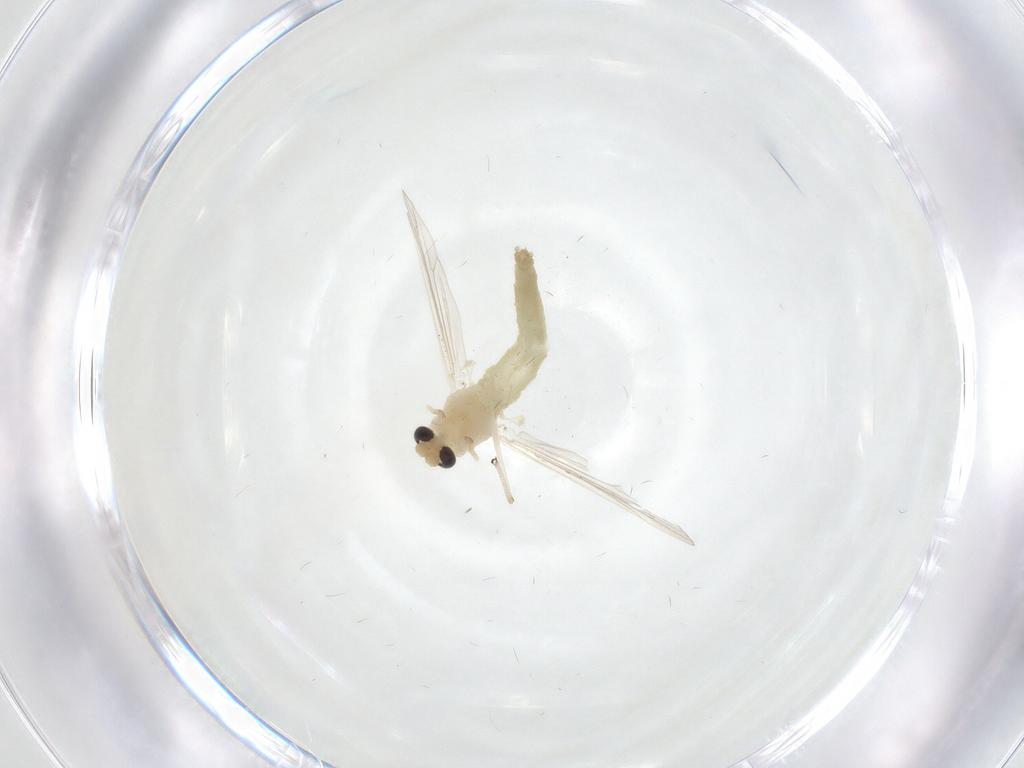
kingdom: Animalia
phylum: Arthropoda
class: Insecta
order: Diptera
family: Chironomidae
